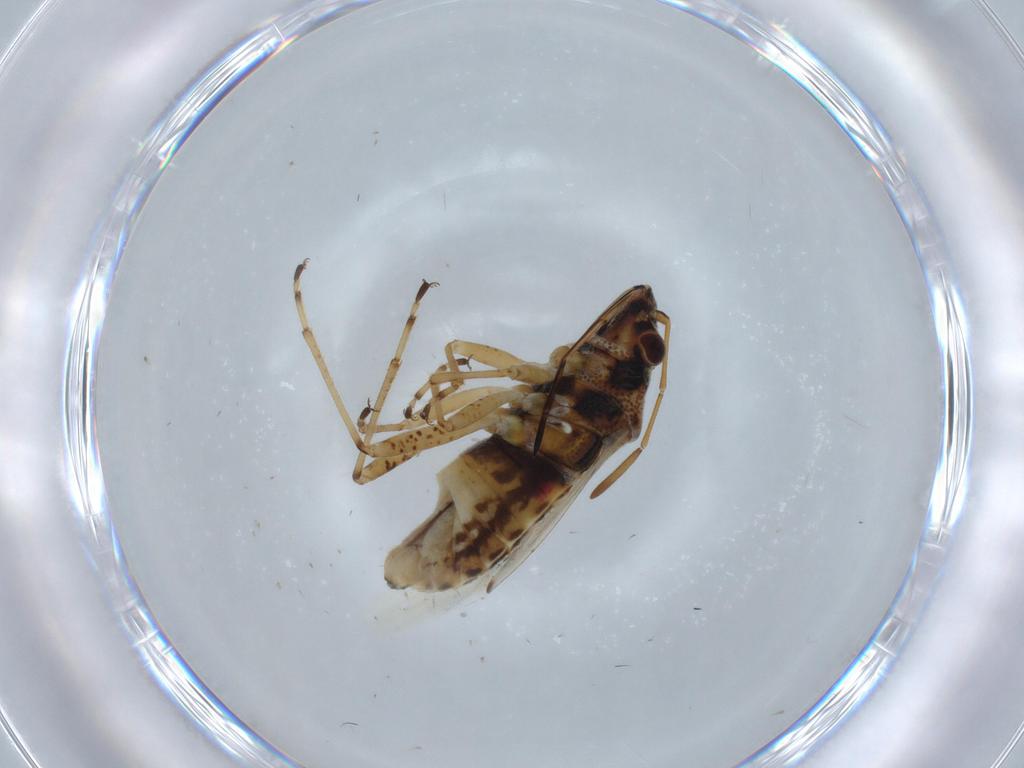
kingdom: Animalia
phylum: Arthropoda
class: Insecta
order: Hemiptera
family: Lygaeidae
